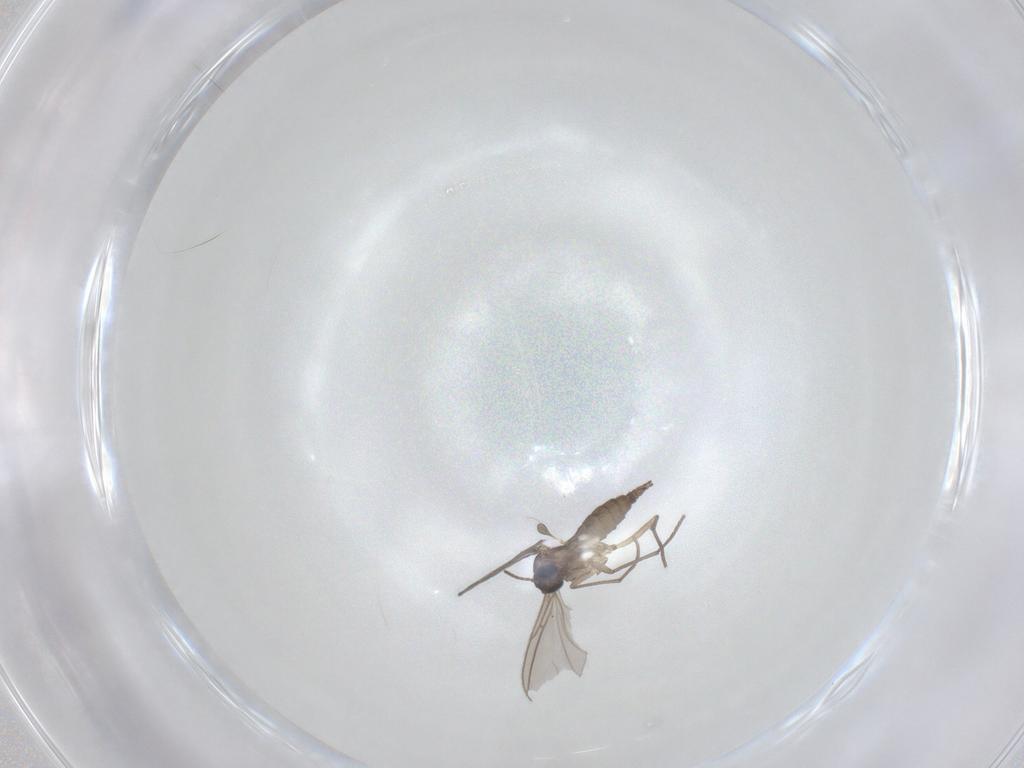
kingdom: Animalia
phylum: Arthropoda
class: Insecta
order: Diptera
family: Sciaridae
